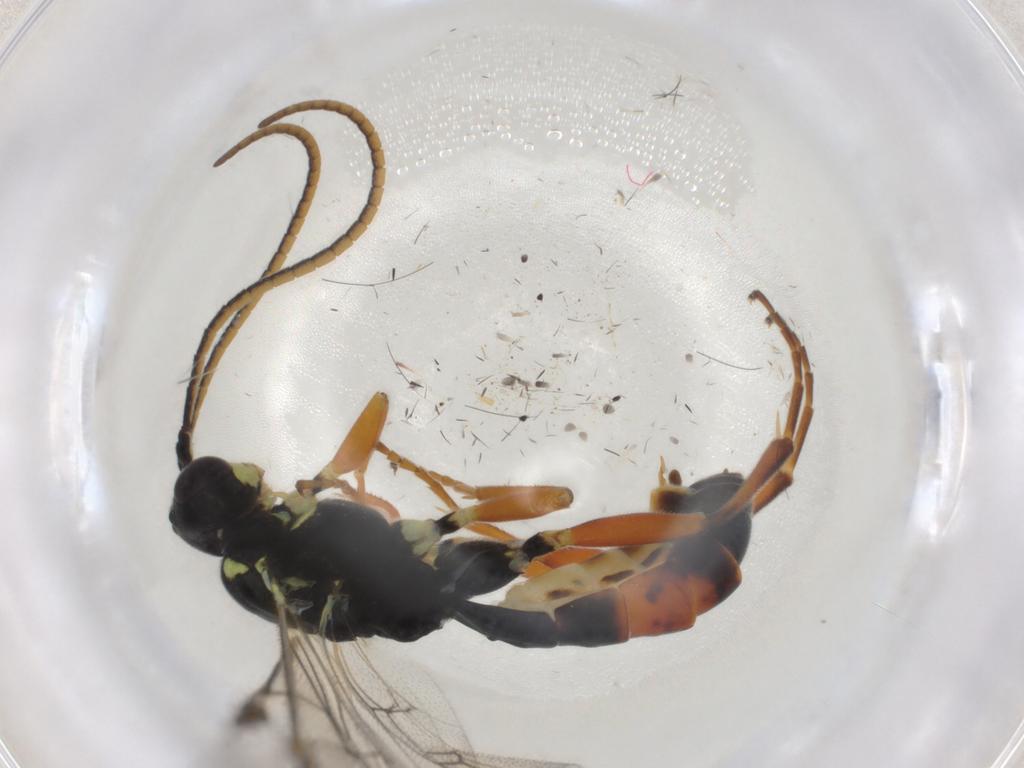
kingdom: Animalia
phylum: Arthropoda
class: Insecta
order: Hymenoptera
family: Ichneumonidae
